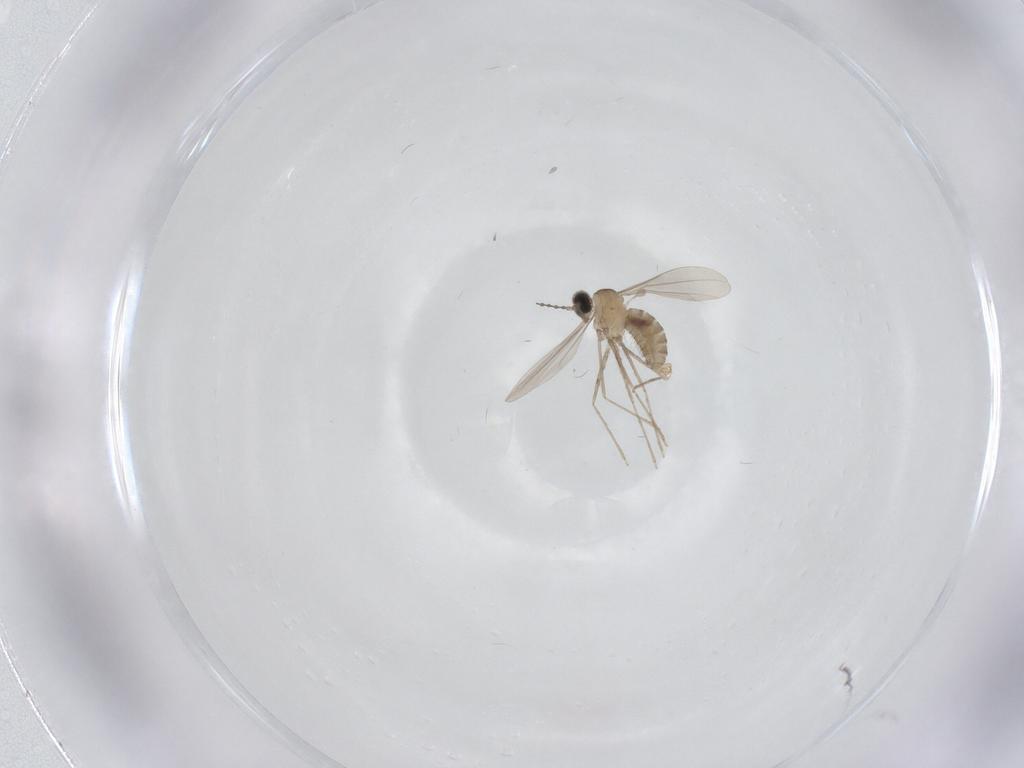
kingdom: Animalia
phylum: Arthropoda
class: Insecta
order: Diptera
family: Cecidomyiidae
